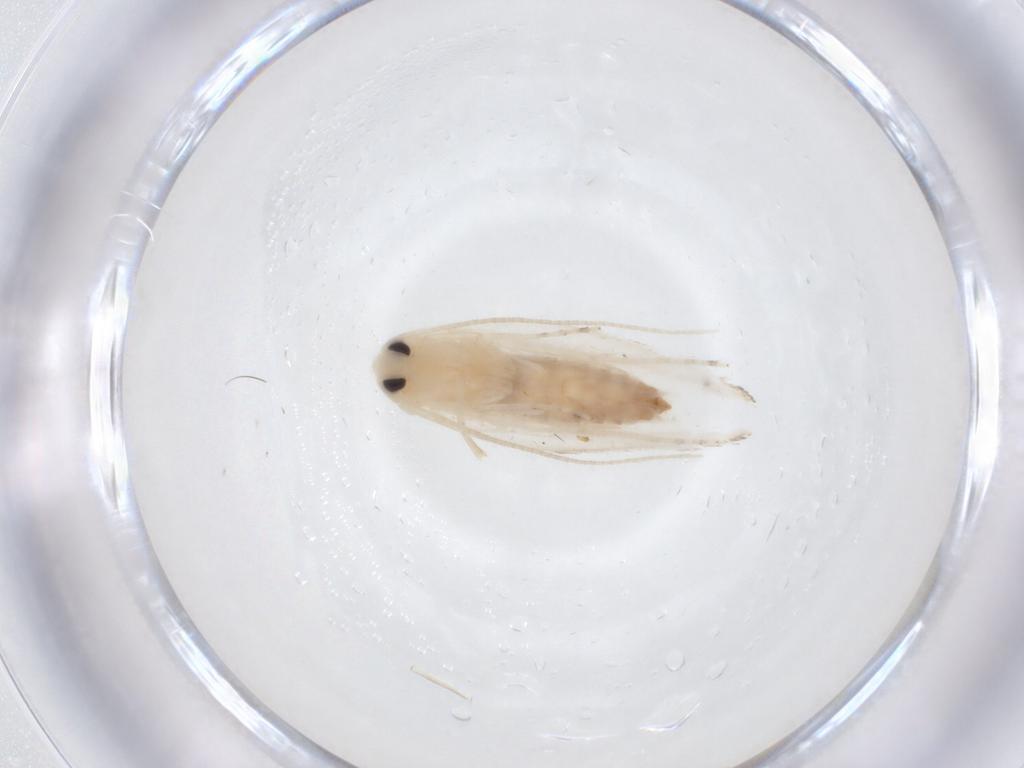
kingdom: Animalia
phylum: Arthropoda
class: Insecta
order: Lepidoptera
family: Lyonetiidae
